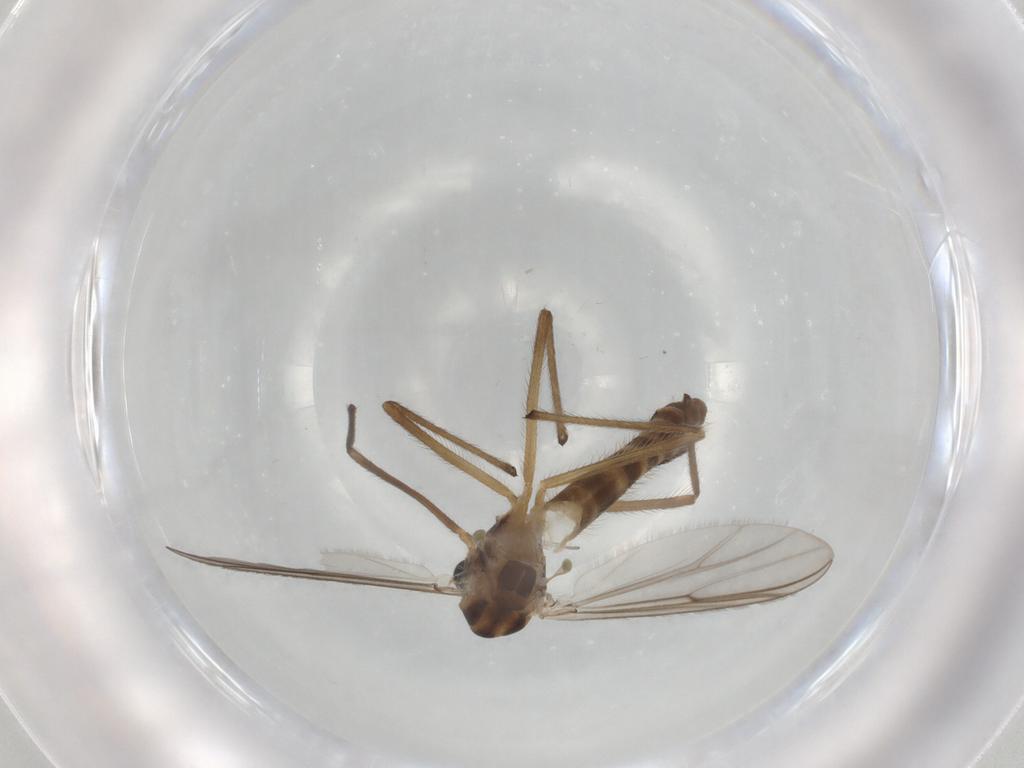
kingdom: Animalia
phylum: Arthropoda
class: Insecta
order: Diptera
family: Chironomidae
